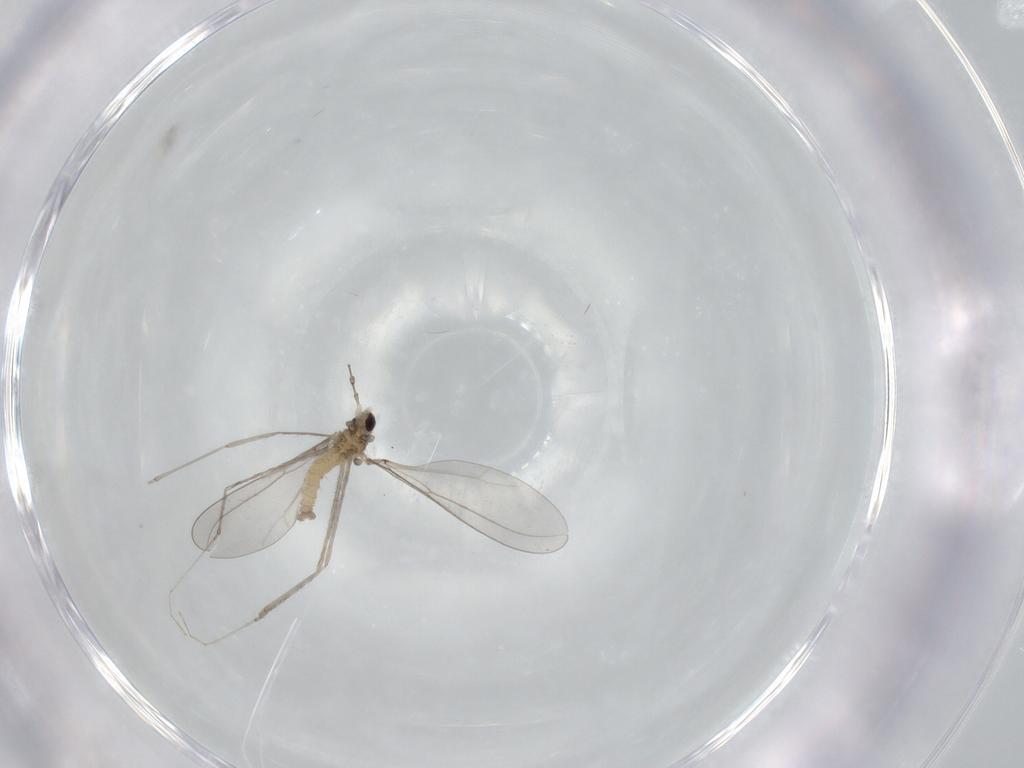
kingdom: Animalia
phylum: Arthropoda
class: Insecta
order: Diptera
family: Cecidomyiidae
